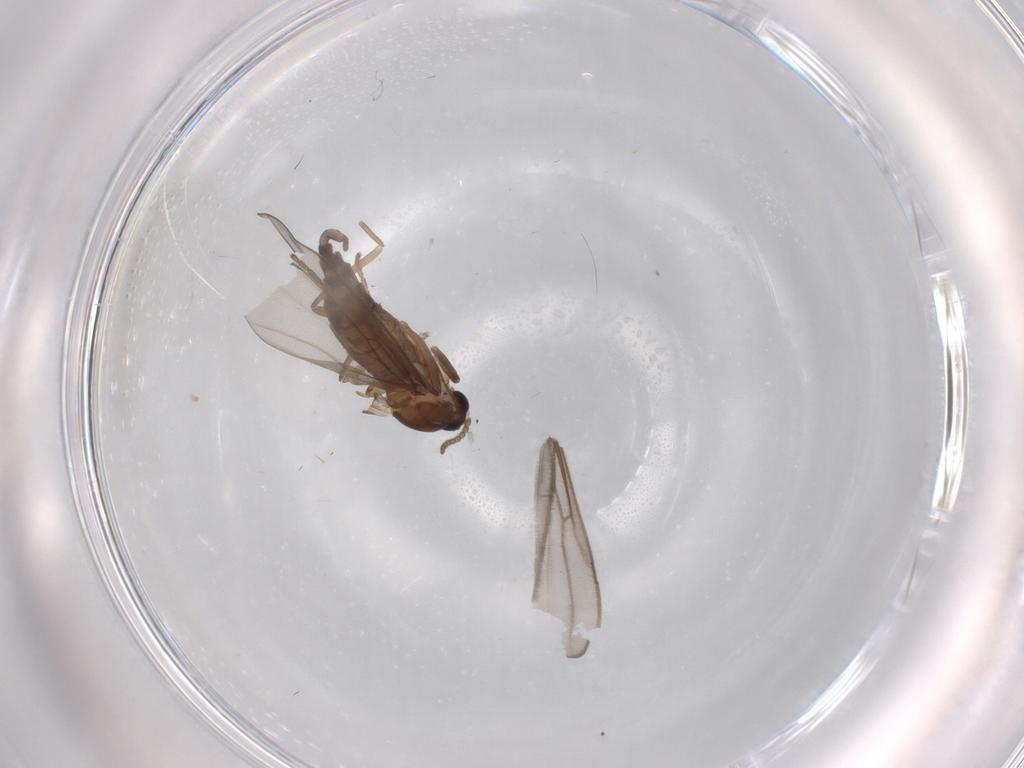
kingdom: Animalia
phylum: Arthropoda
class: Insecta
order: Diptera
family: Cecidomyiidae
